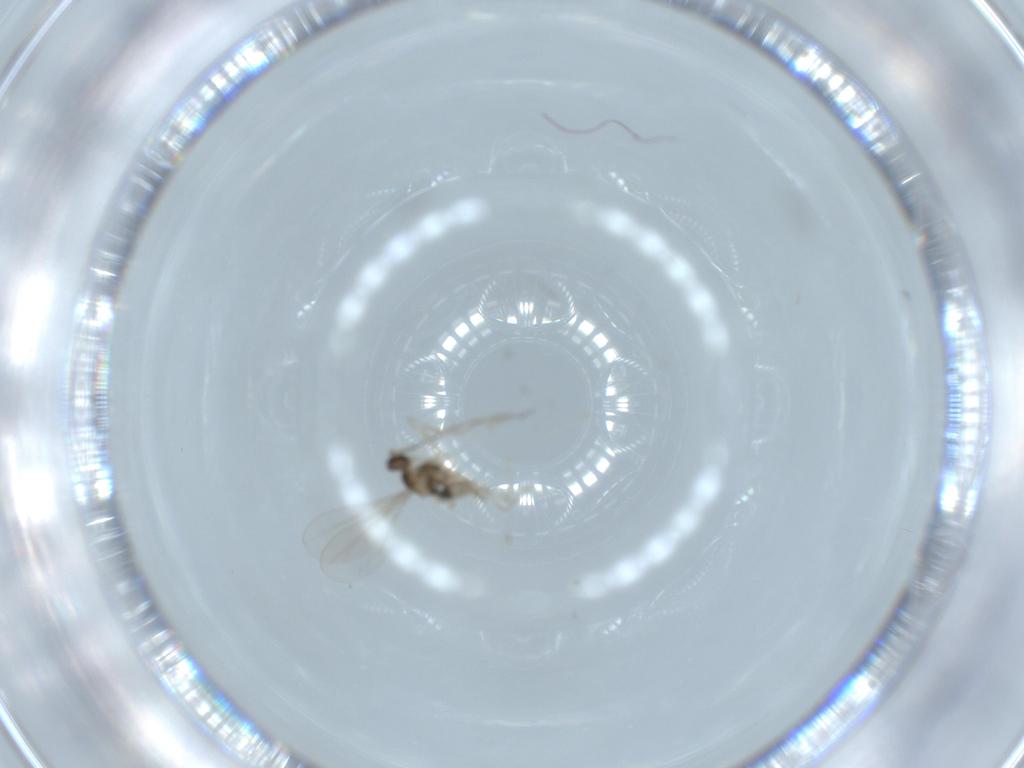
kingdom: Animalia
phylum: Arthropoda
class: Insecta
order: Diptera
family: Cecidomyiidae
